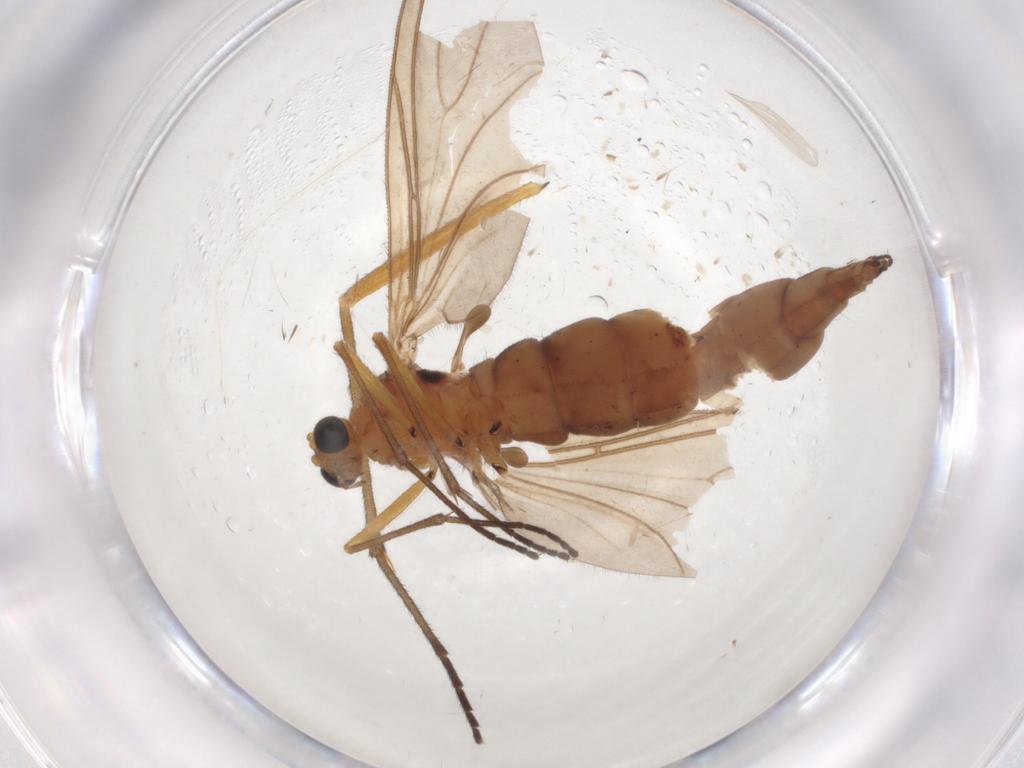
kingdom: Animalia
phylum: Arthropoda
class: Insecta
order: Diptera
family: Sciaridae
